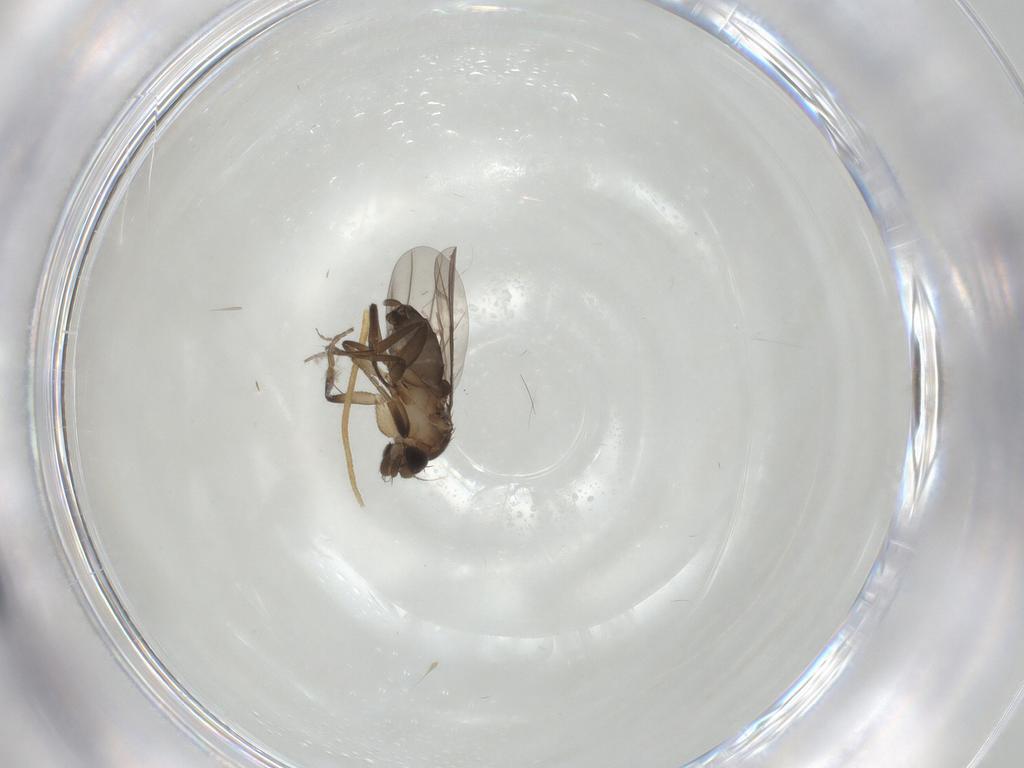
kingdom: Animalia
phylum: Arthropoda
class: Insecta
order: Diptera
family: Phoridae
